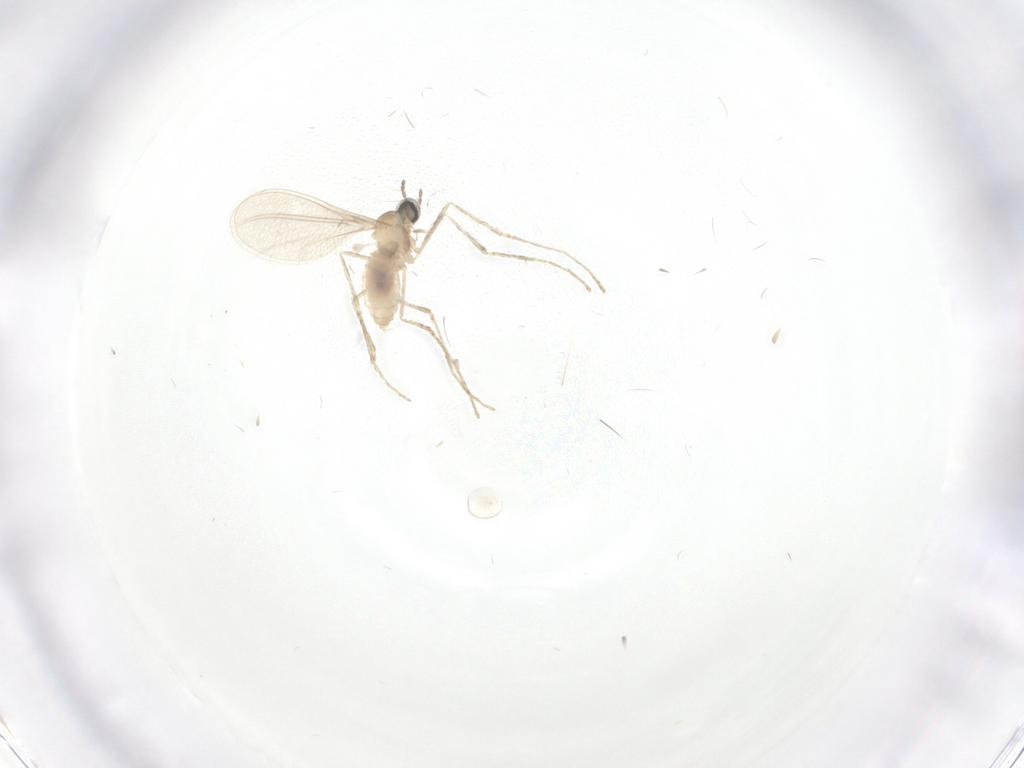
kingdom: Animalia
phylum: Arthropoda
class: Insecta
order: Diptera
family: Cecidomyiidae
